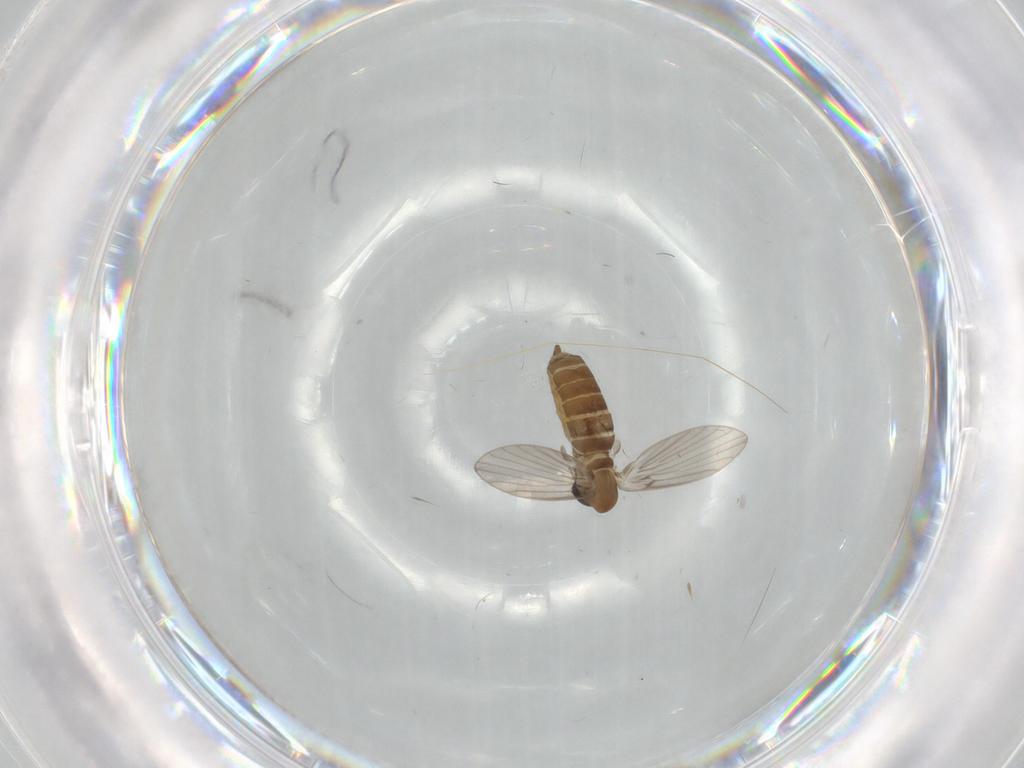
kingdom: Animalia
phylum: Arthropoda
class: Insecta
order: Diptera
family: Psychodidae
